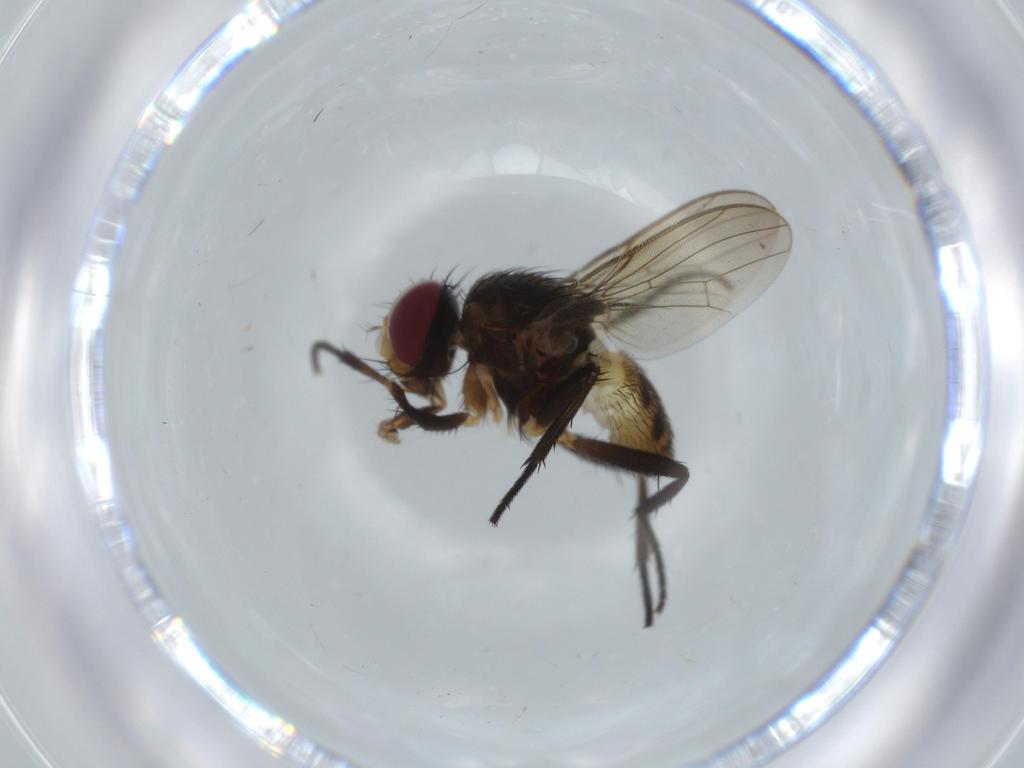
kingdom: Animalia
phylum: Arthropoda
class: Insecta
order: Diptera
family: Anthomyiidae
